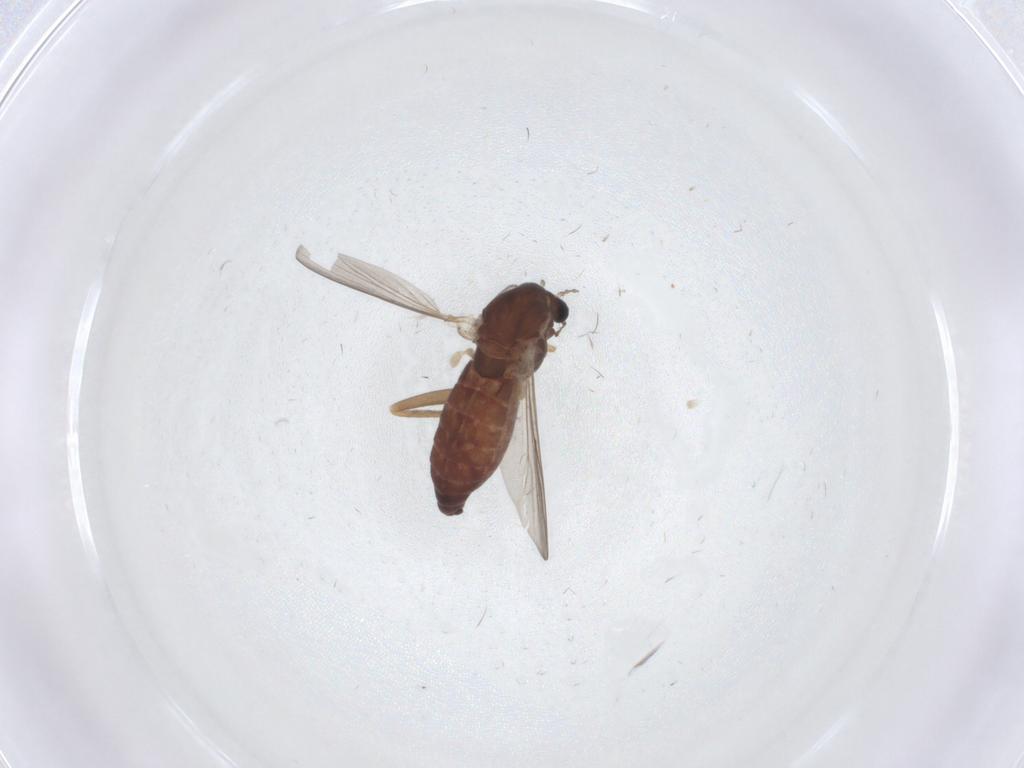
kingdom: Animalia
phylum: Arthropoda
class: Insecta
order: Diptera
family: Chironomidae
